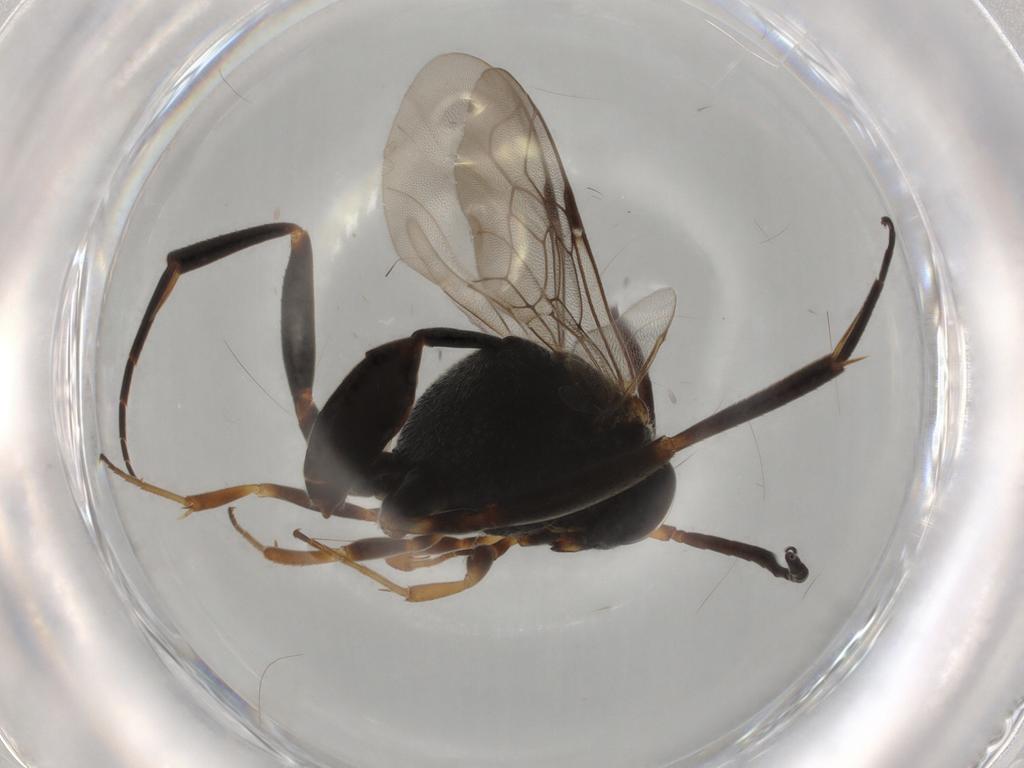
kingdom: Animalia
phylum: Arthropoda
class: Insecta
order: Hymenoptera
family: Evaniidae
